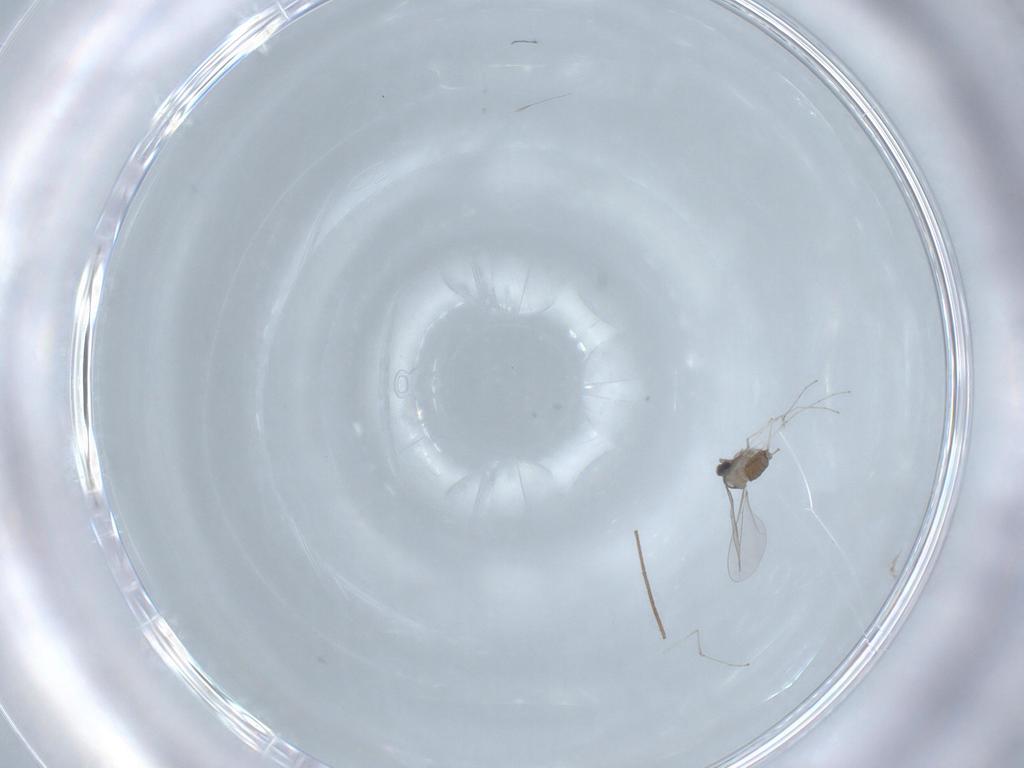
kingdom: Animalia
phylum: Arthropoda
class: Insecta
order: Diptera
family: Cecidomyiidae
